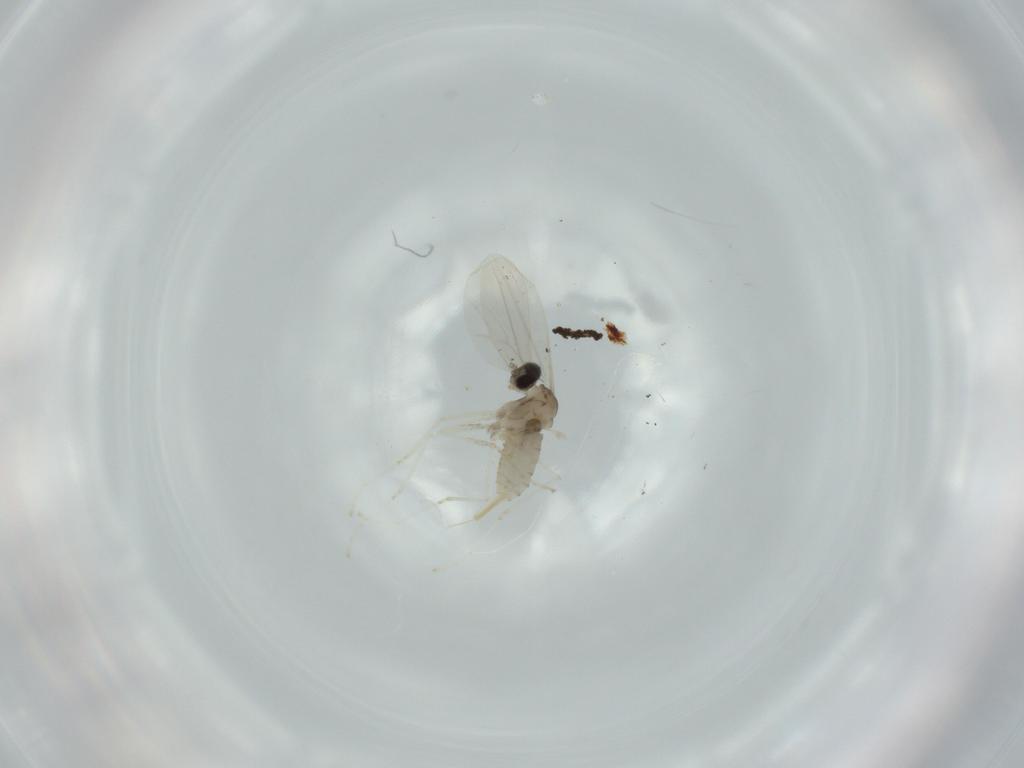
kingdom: Animalia
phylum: Arthropoda
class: Insecta
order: Diptera
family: Cecidomyiidae
